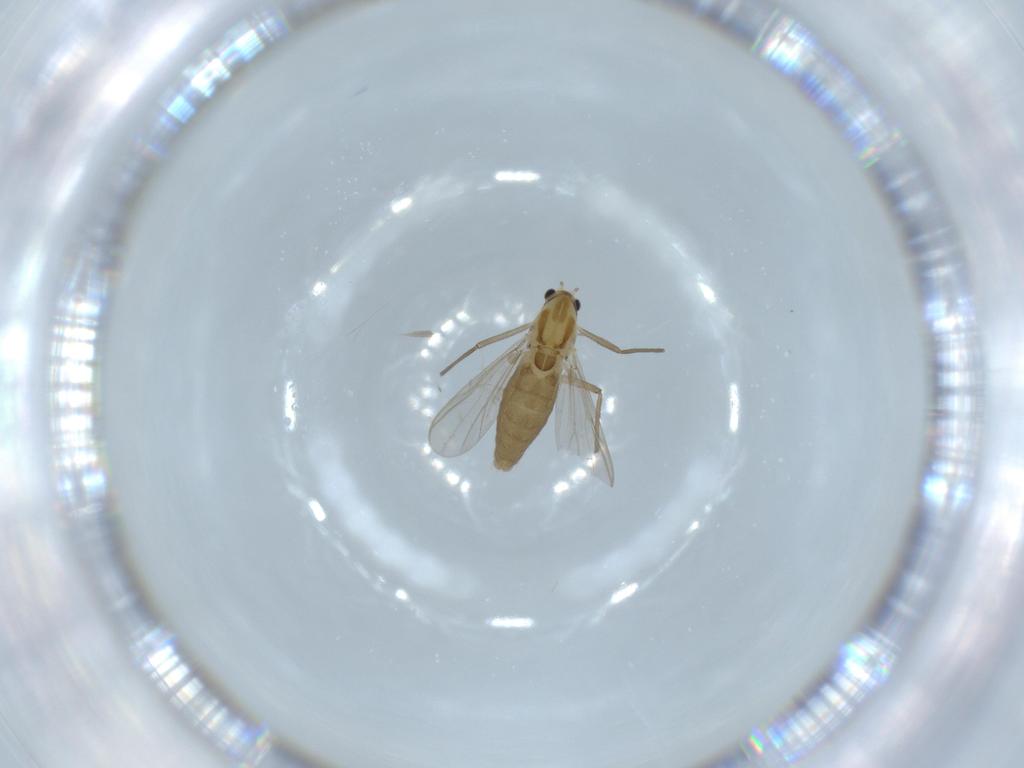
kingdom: Animalia
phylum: Arthropoda
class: Insecta
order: Diptera
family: Chironomidae
